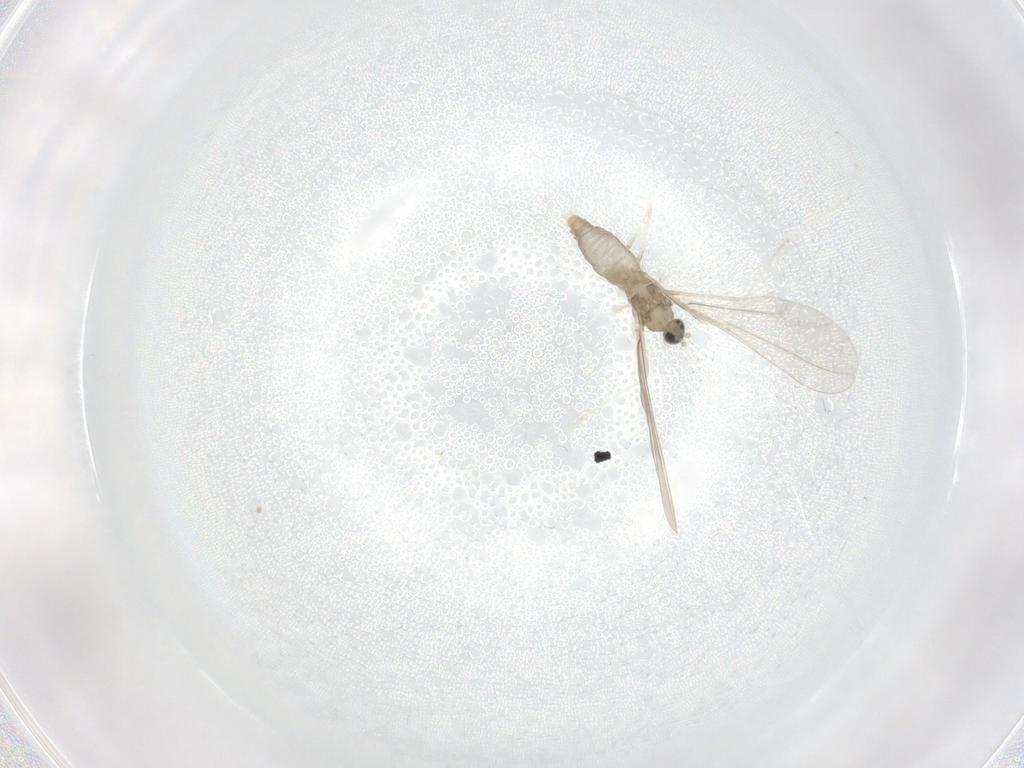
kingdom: Animalia
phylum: Arthropoda
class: Insecta
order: Diptera
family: Cecidomyiidae
